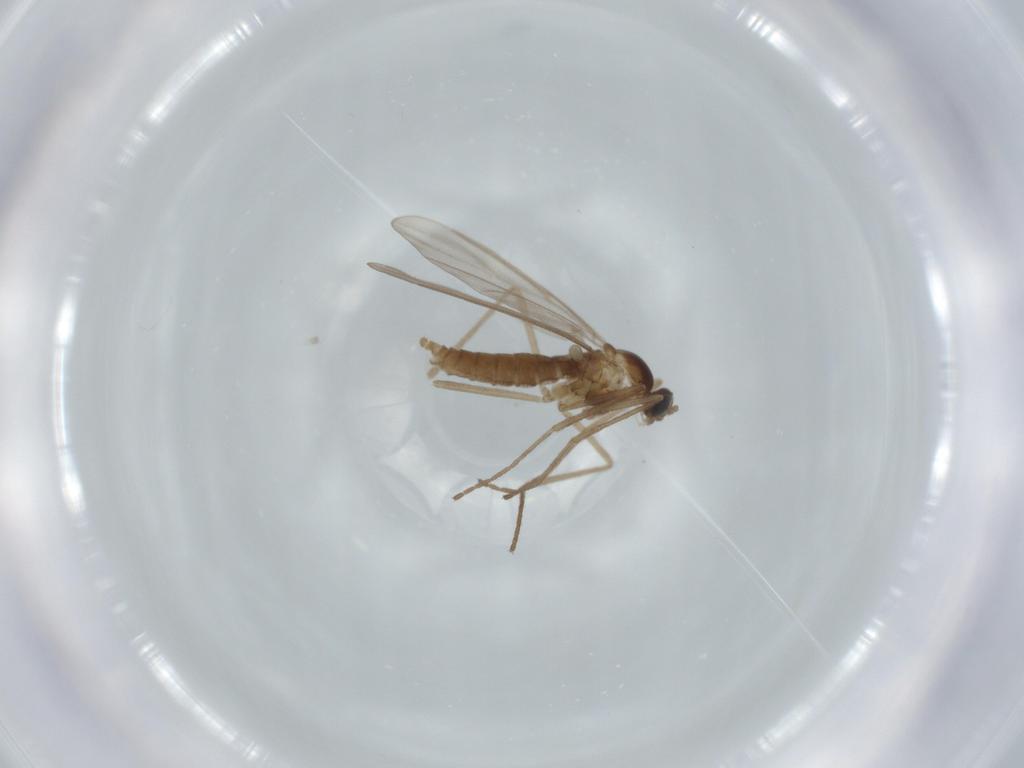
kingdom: Animalia
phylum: Arthropoda
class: Insecta
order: Diptera
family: Cecidomyiidae
